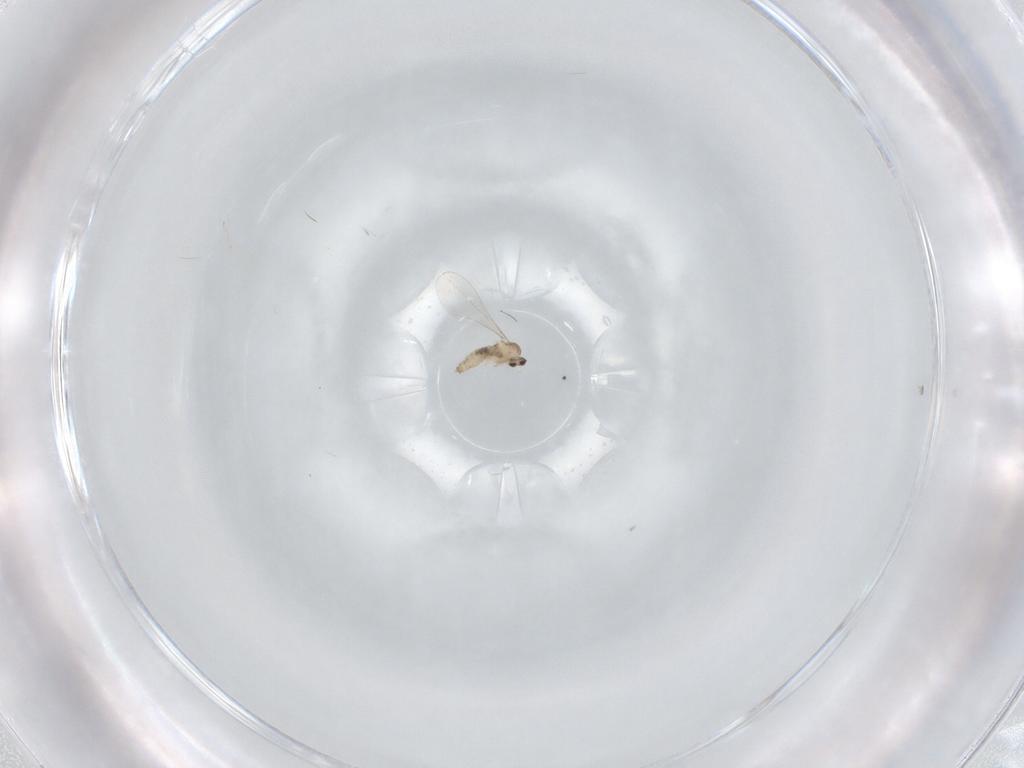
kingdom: Animalia
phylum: Arthropoda
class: Insecta
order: Diptera
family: Cecidomyiidae
